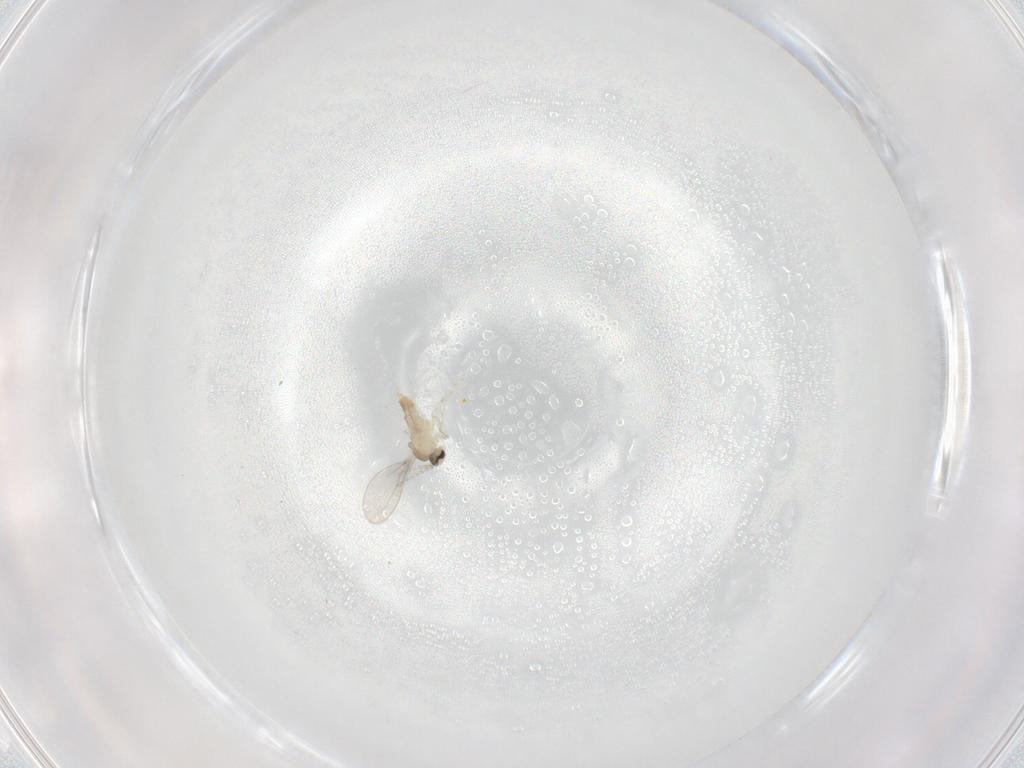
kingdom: Animalia
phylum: Arthropoda
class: Insecta
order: Diptera
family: Cecidomyiidae
